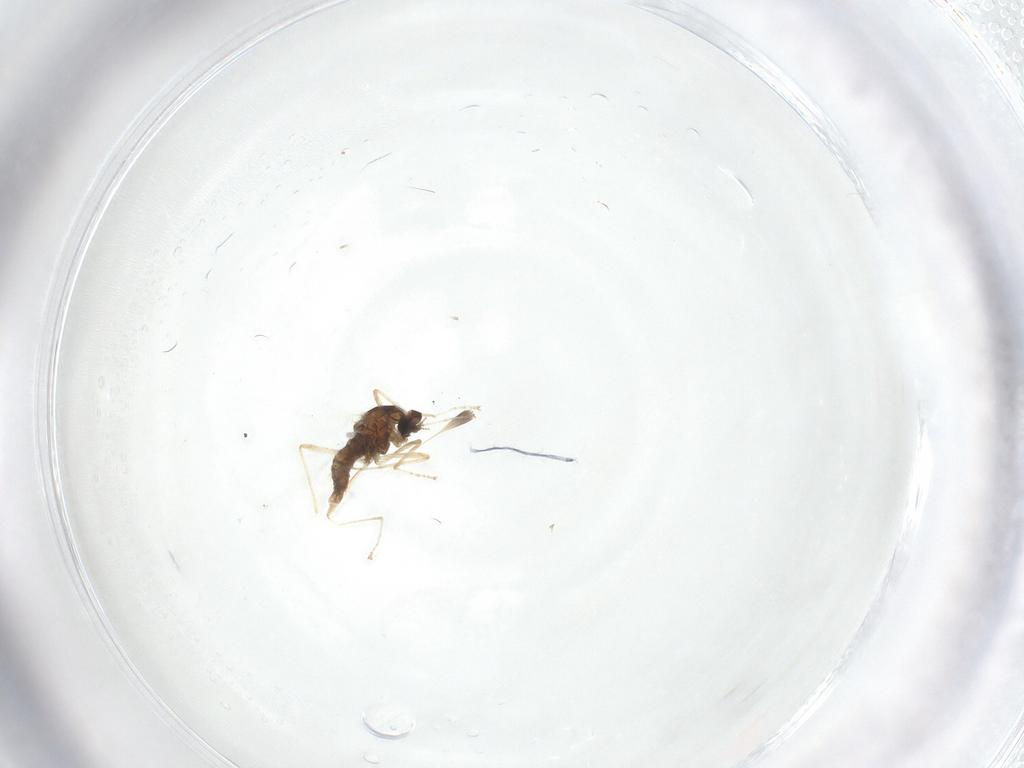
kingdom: Animalia
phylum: Arthropoda
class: Insecta
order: Diptera
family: Cecidomyiidae
